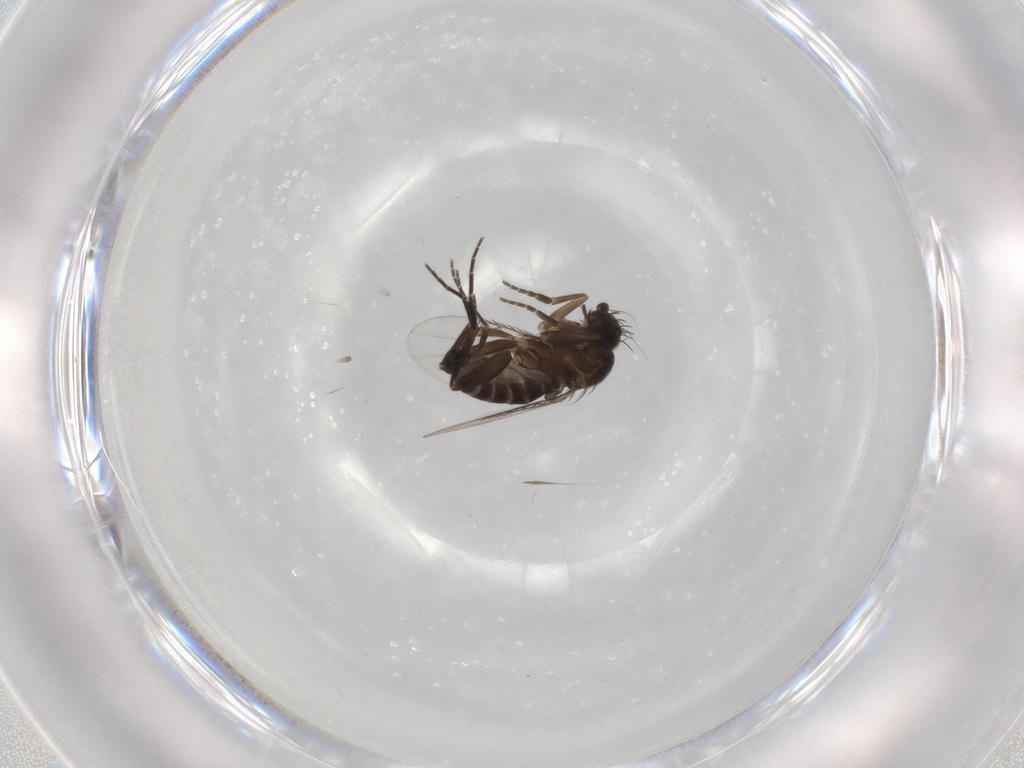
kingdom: Animalia
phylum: Arthropoda
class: Insecta
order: Diptera
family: Phoridae
